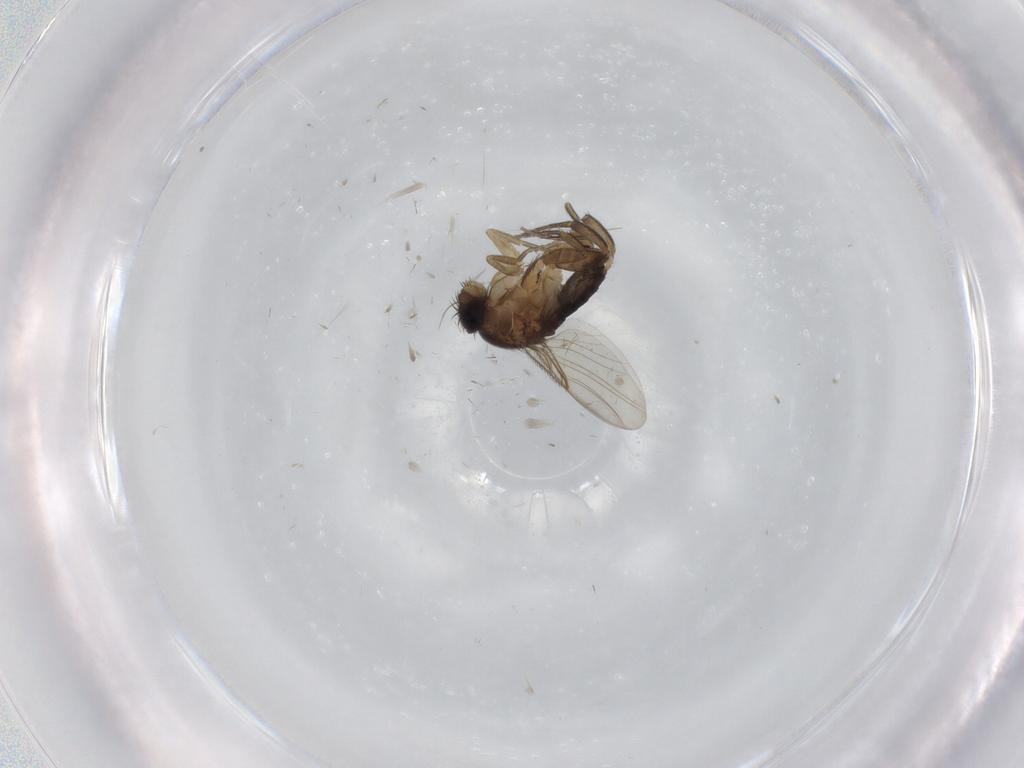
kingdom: Animalia
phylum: Arthropoda
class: Insecta
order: Diptera
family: Phoridae
